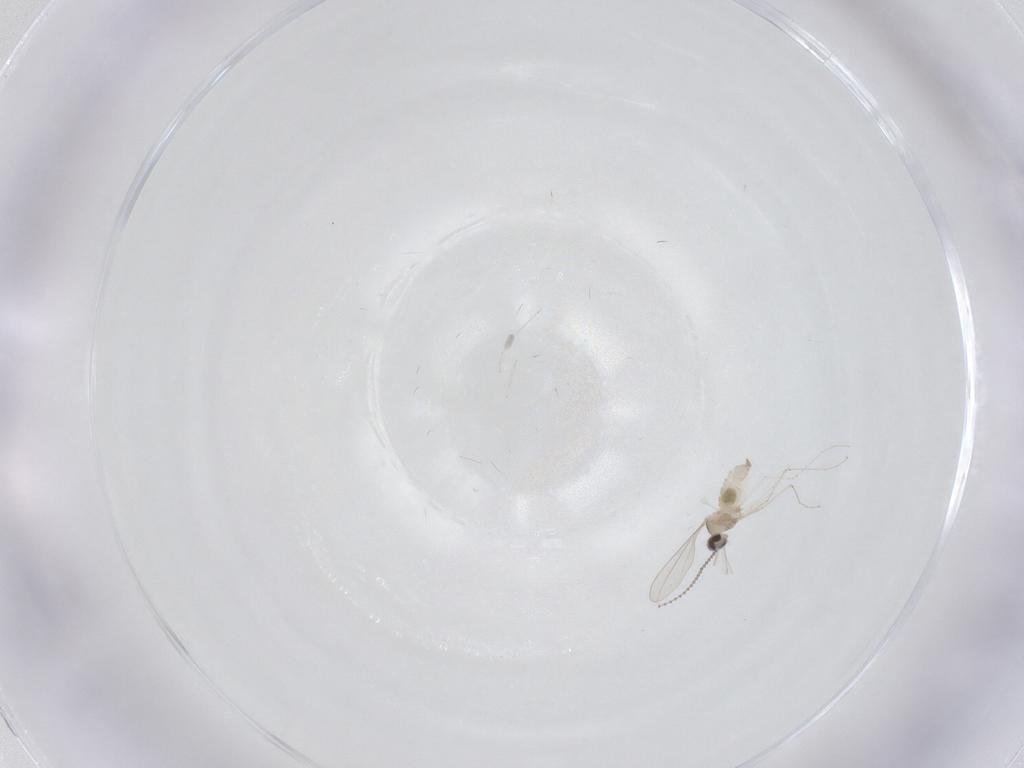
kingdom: Animalia
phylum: Arthropoda
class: Insecta
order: Diptera
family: Cecidomyiidae
